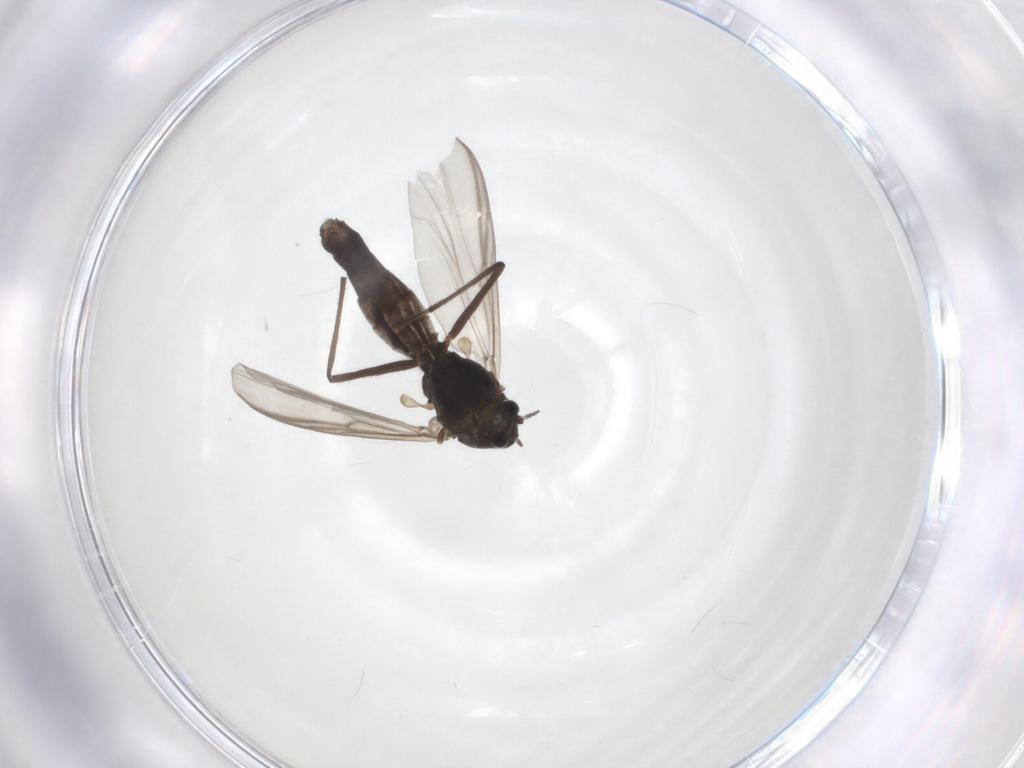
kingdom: Animalia
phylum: Arthropoda
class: Insecta
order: Diptera
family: Chironomidae
